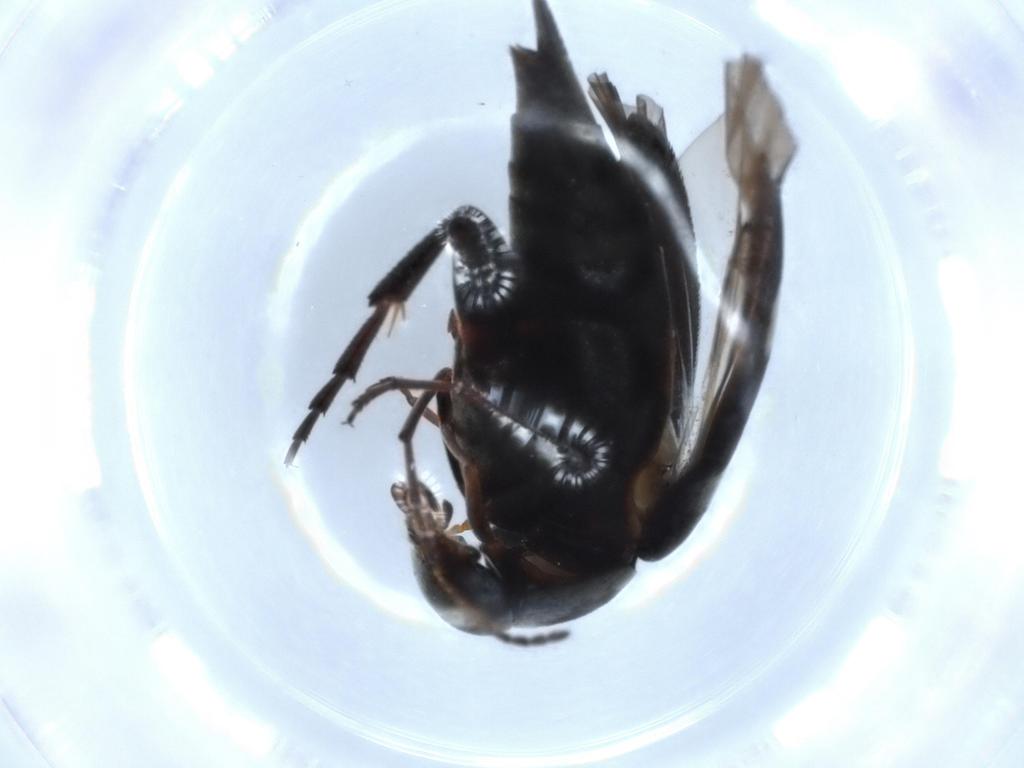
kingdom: Animalia
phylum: Arthropoda
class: Insecta
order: Coleoptera
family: Mordellidae
